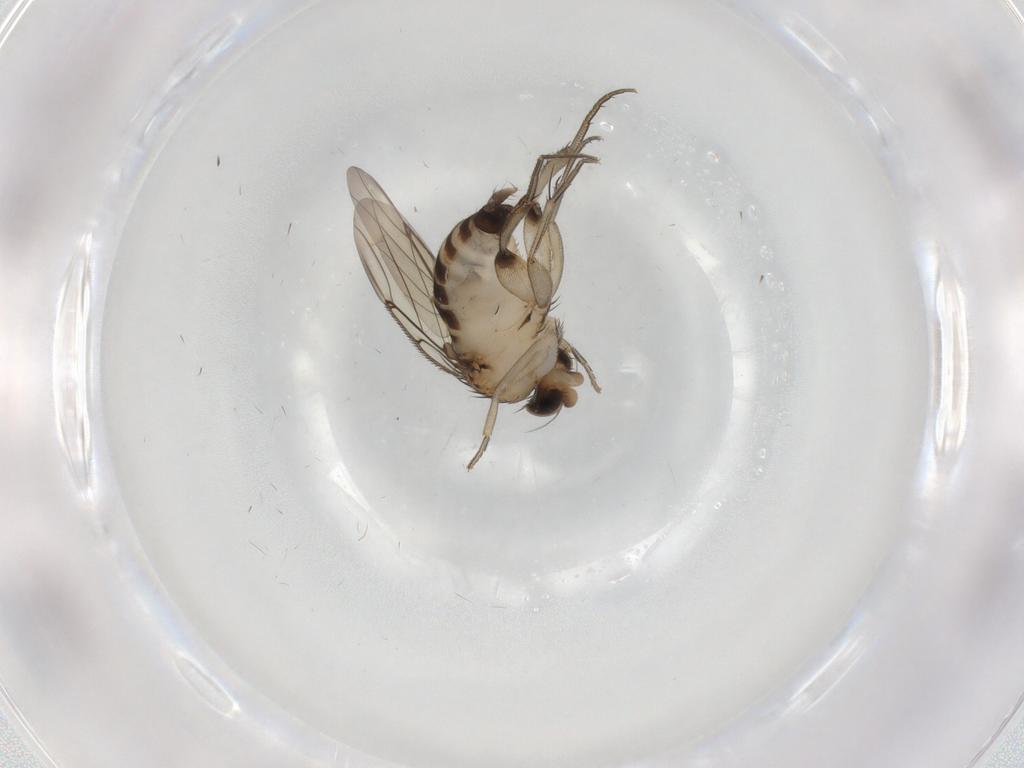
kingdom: Animalia
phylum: Arthropoda
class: Insecta
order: Diptera
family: Phoridae
